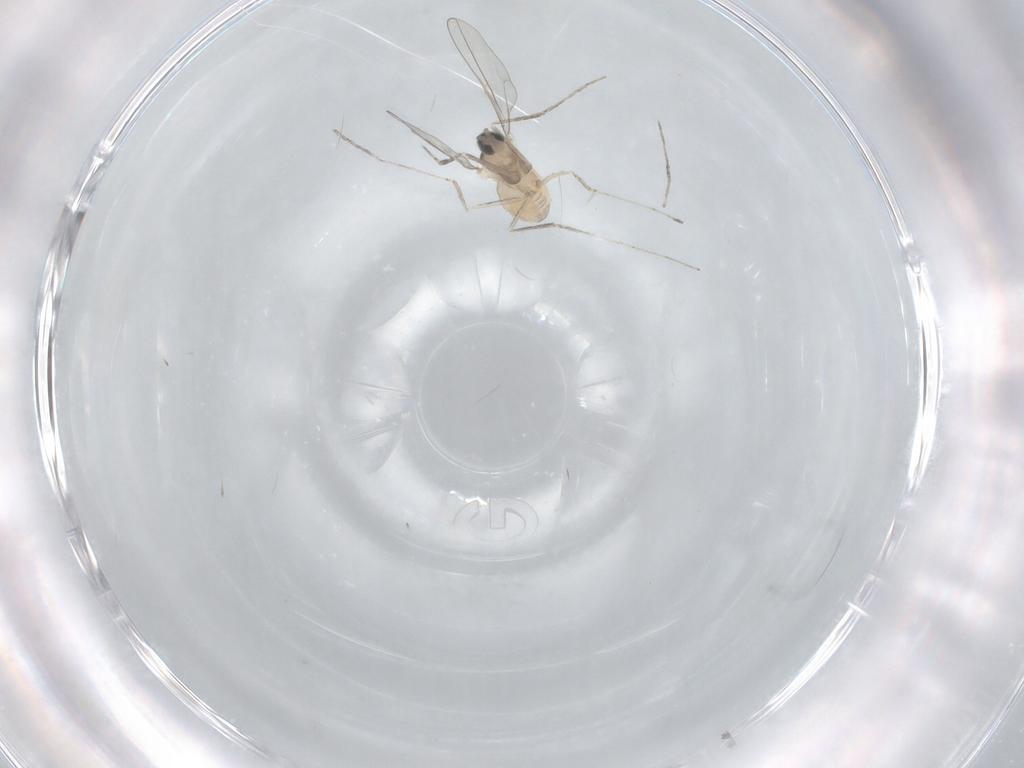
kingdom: Animalia
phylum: Arthropoda
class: Insecta
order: Diptera
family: Cecidomyiidae
